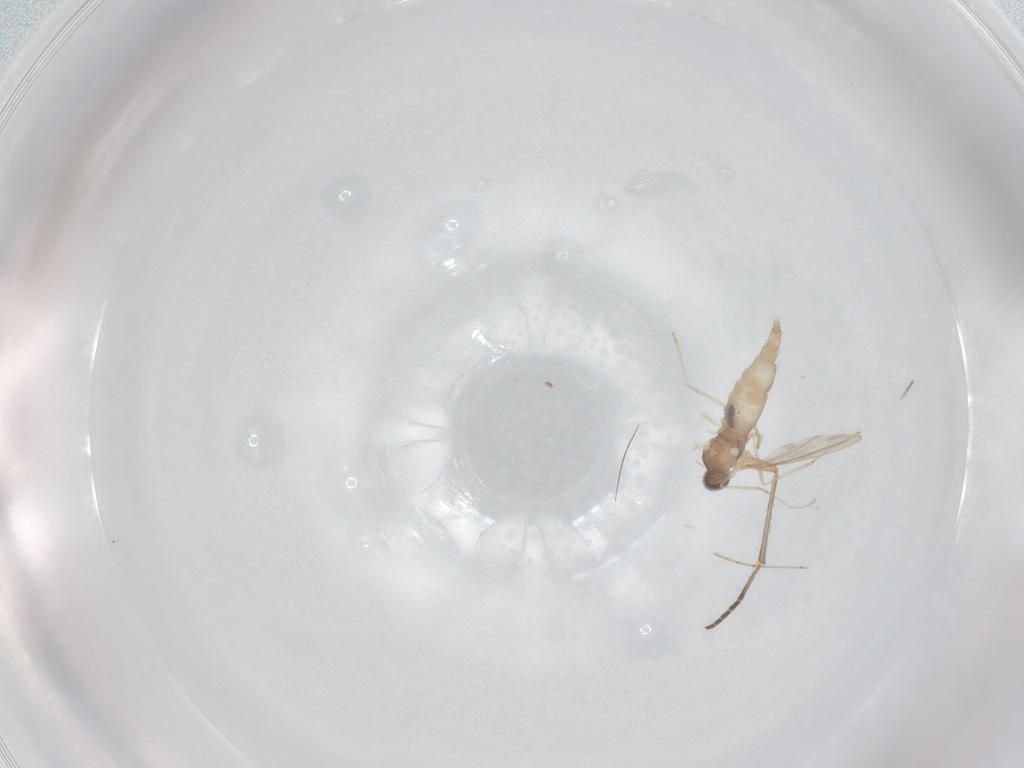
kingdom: Animalia
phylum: Arthropoda
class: Insecta
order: Diptera
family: Cecidomyiidae
